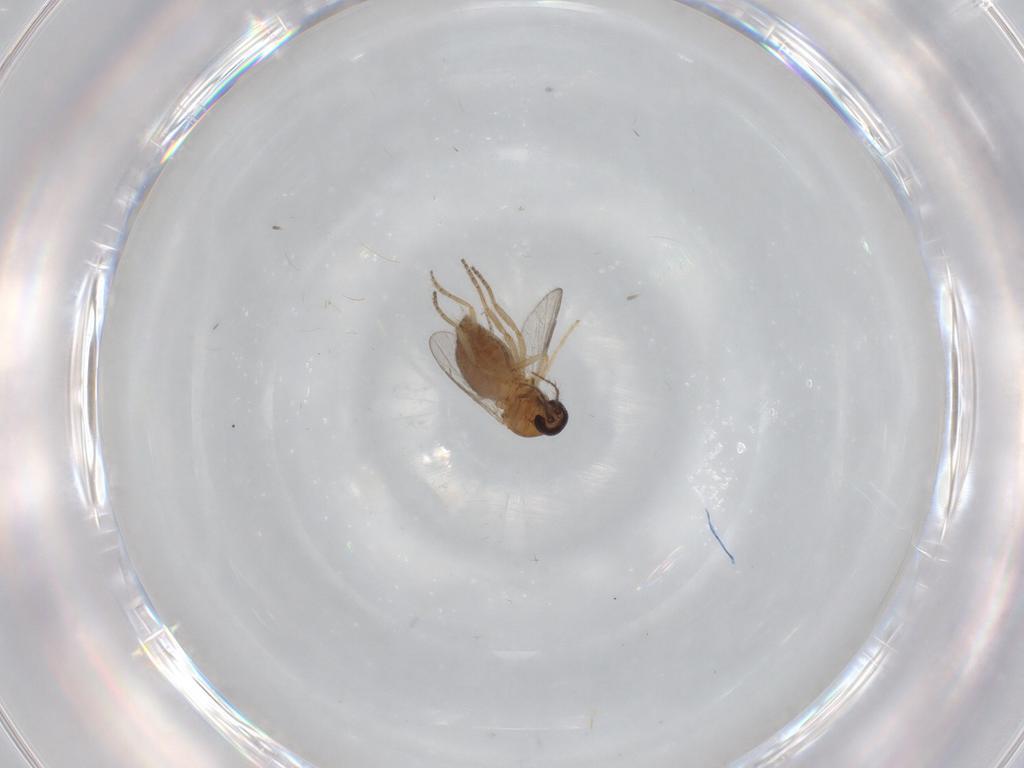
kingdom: Animalia
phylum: Arthropoda
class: Insecta
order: Diptera
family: Ceratopogonidae
